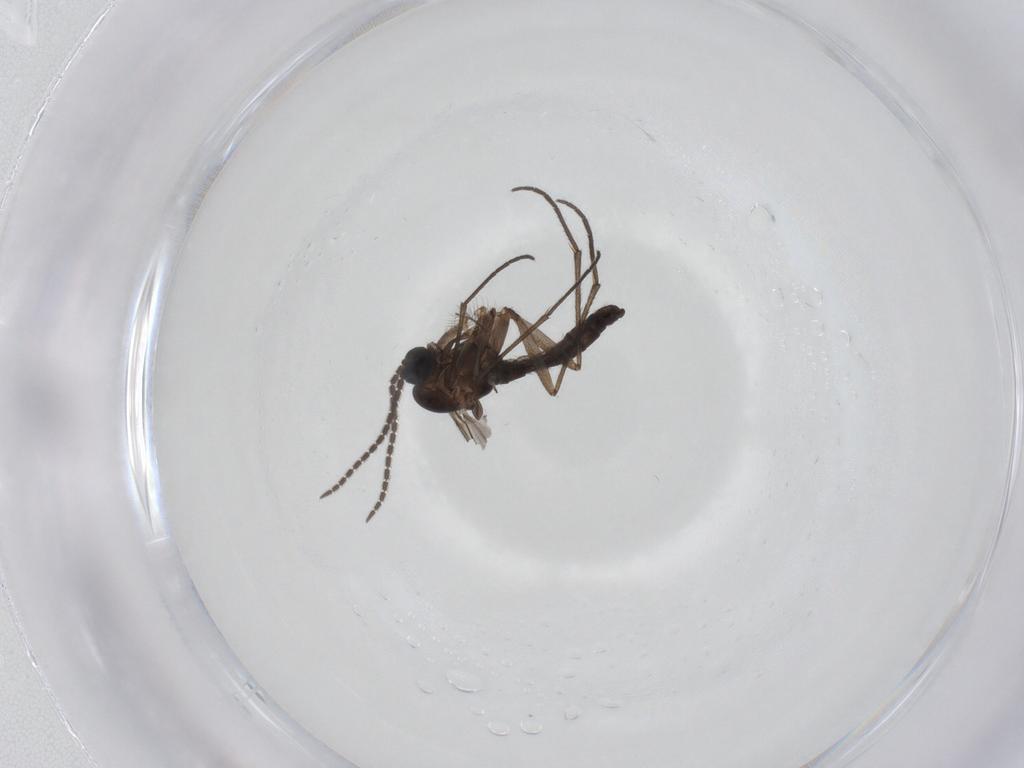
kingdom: Animalia
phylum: Arthropoda
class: Insecta
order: Diptera
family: Sciaridae
